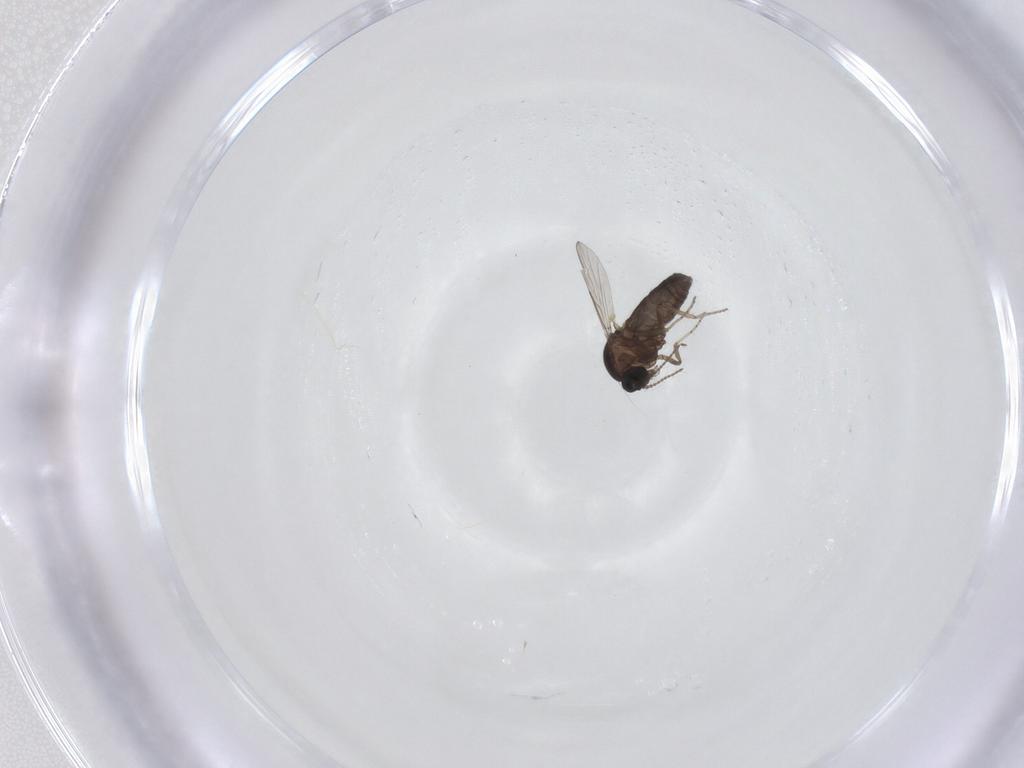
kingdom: Animalia
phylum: Arthropoda
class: Insecta
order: Diptera
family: Ceratopogonidae
